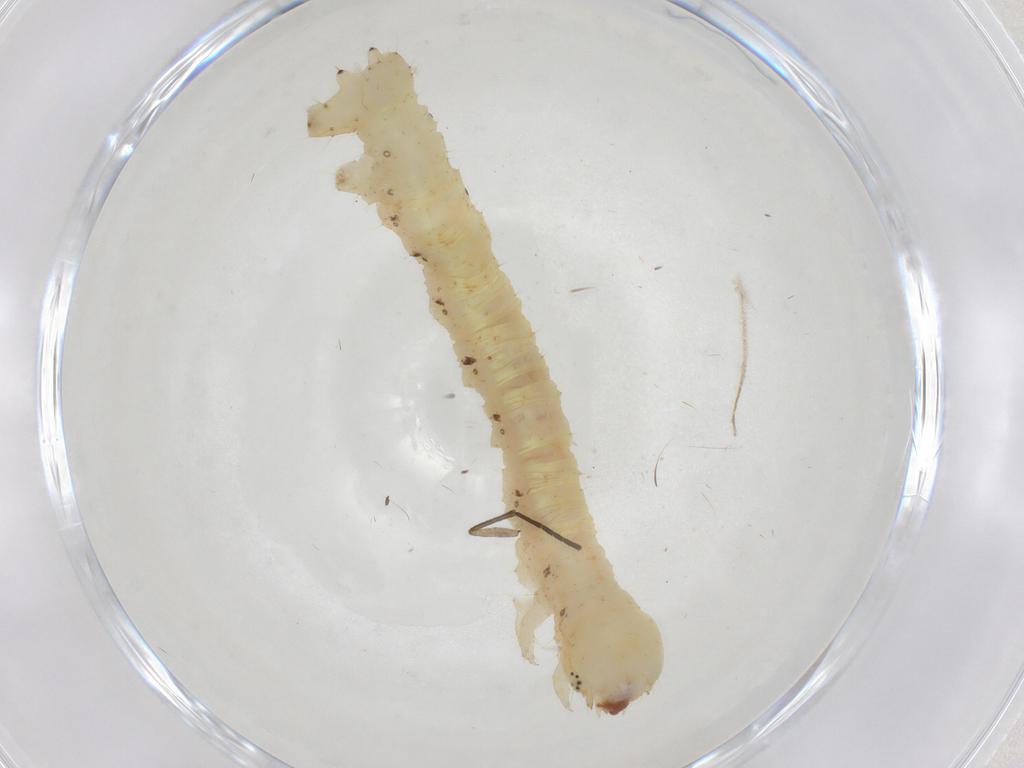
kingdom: Animalia
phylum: Arthropoda
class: Insecta
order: Lepidoptera
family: Geometridae
